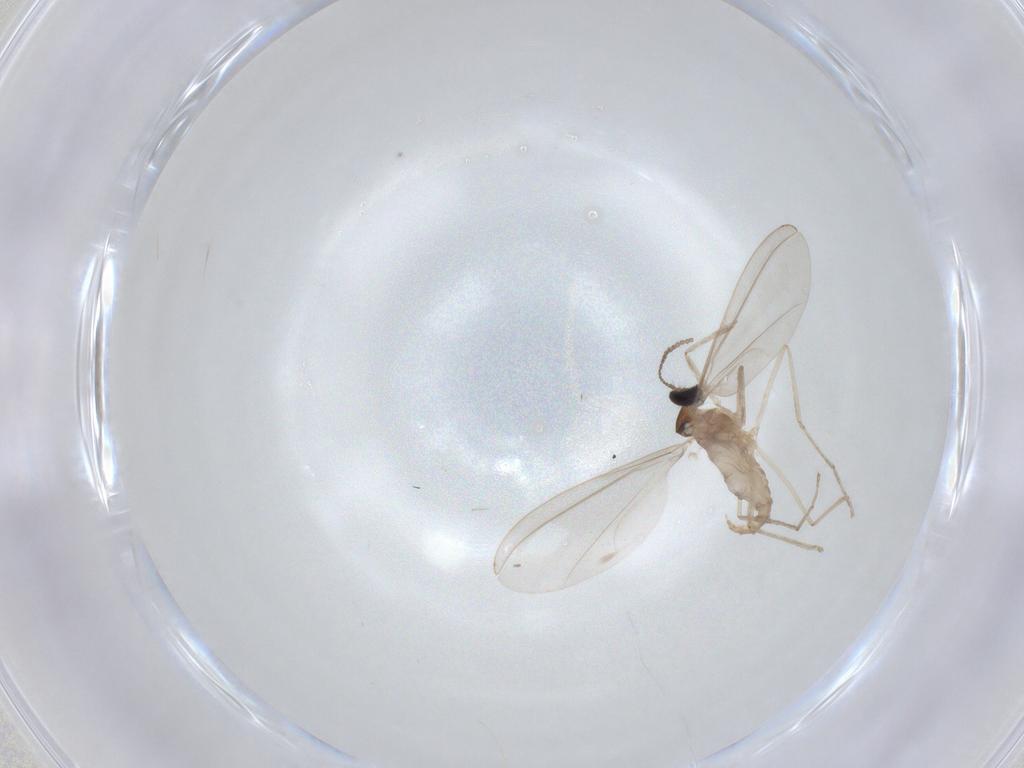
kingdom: Animalia
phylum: Arthropoda
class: Insecta
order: Diptera
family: Cecidomyiidae
